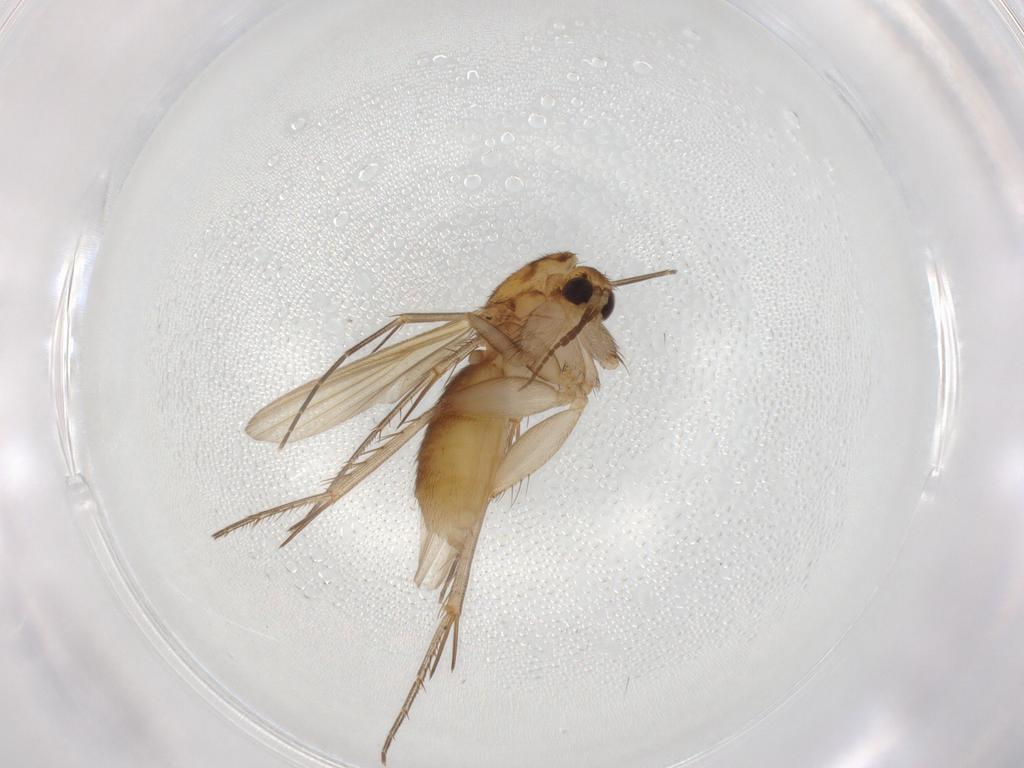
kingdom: Animalia
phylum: Arthropoda
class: Insecta
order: Diptera
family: Mycetophilidae
